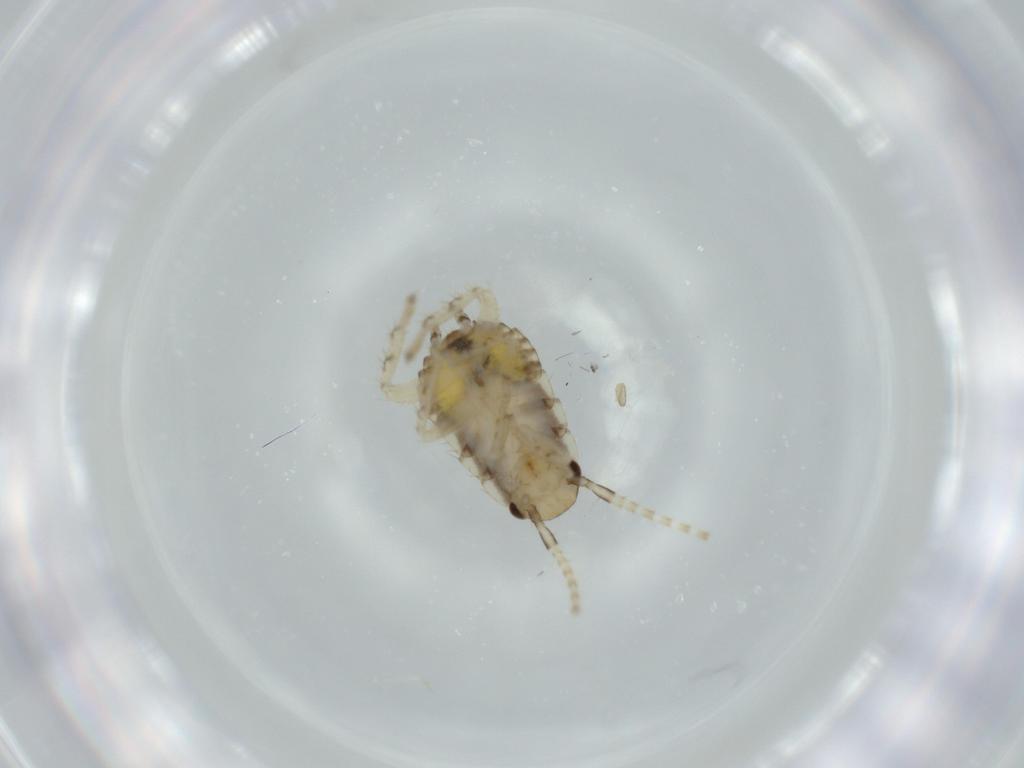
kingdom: Animalia
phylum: Arthropoda
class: Insecta
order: Blattodea
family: Ectobiidae
